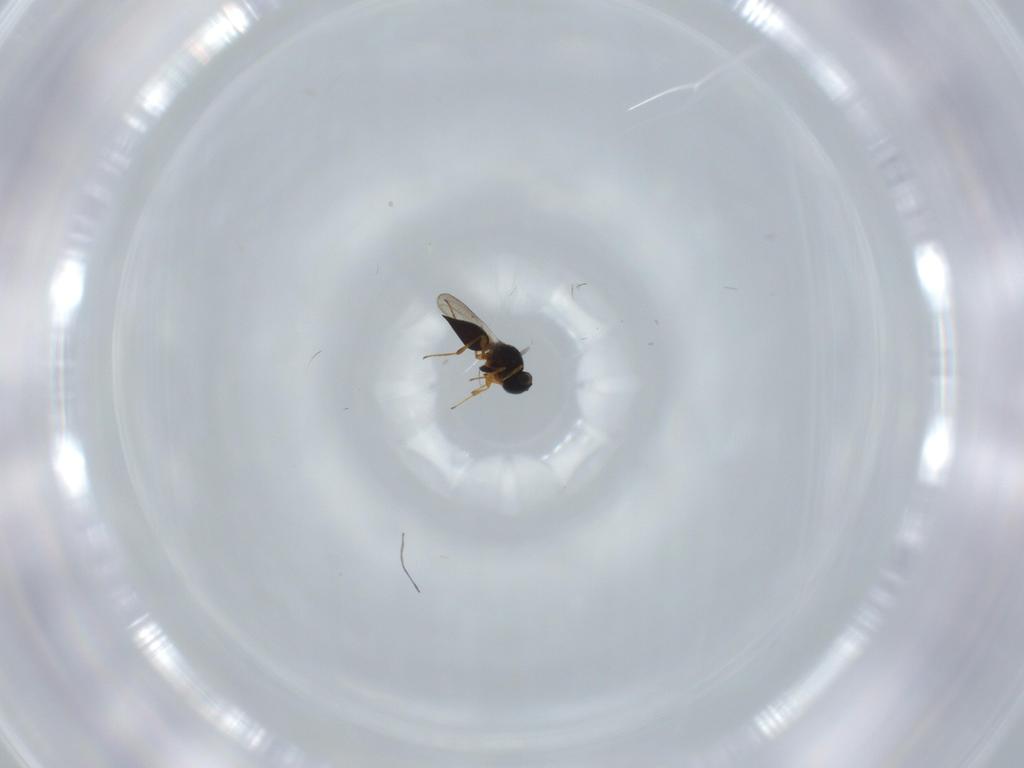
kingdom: Animalia
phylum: Arthropoda
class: Insecta
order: Hymenoptera
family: Platygastridae
